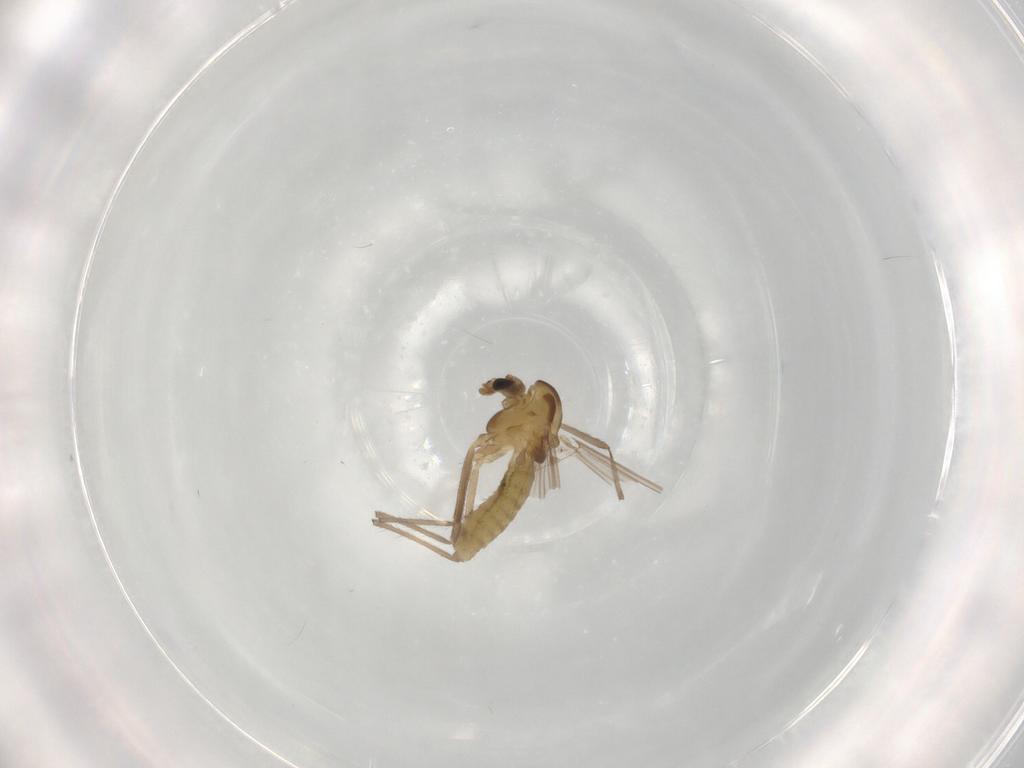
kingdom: Animalia
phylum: Arthropoda
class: Insecta
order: Diptera
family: Chironomidae
